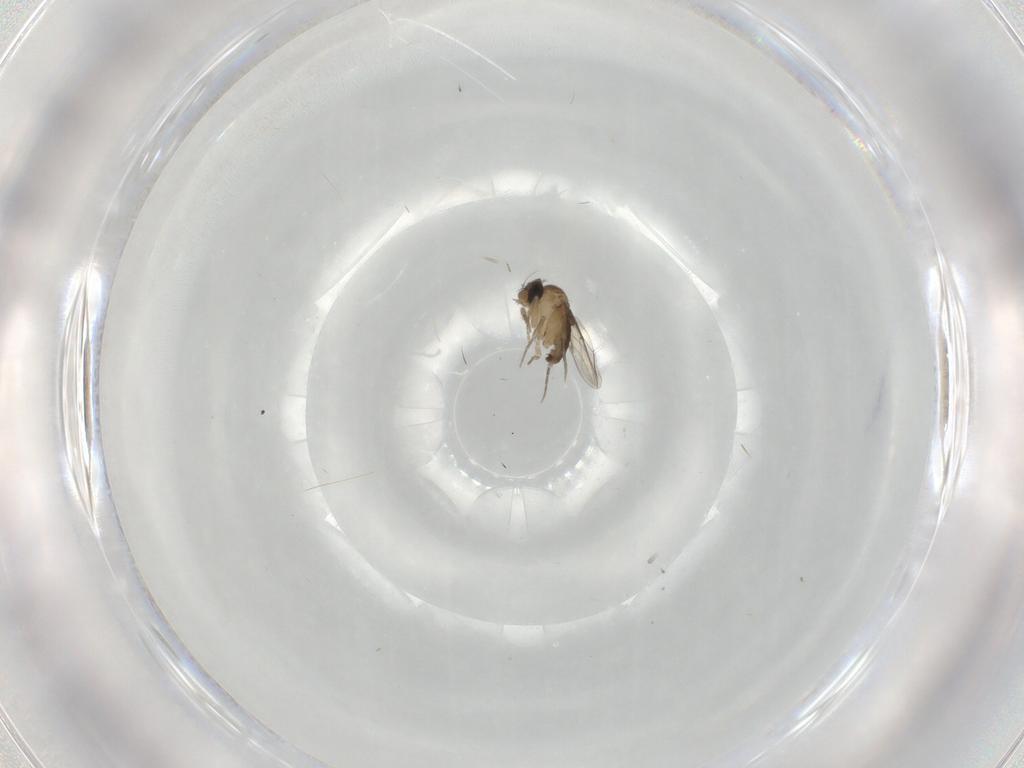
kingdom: Animalia
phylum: Arthropoda
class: Insecta
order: Diptera
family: Phoridae
